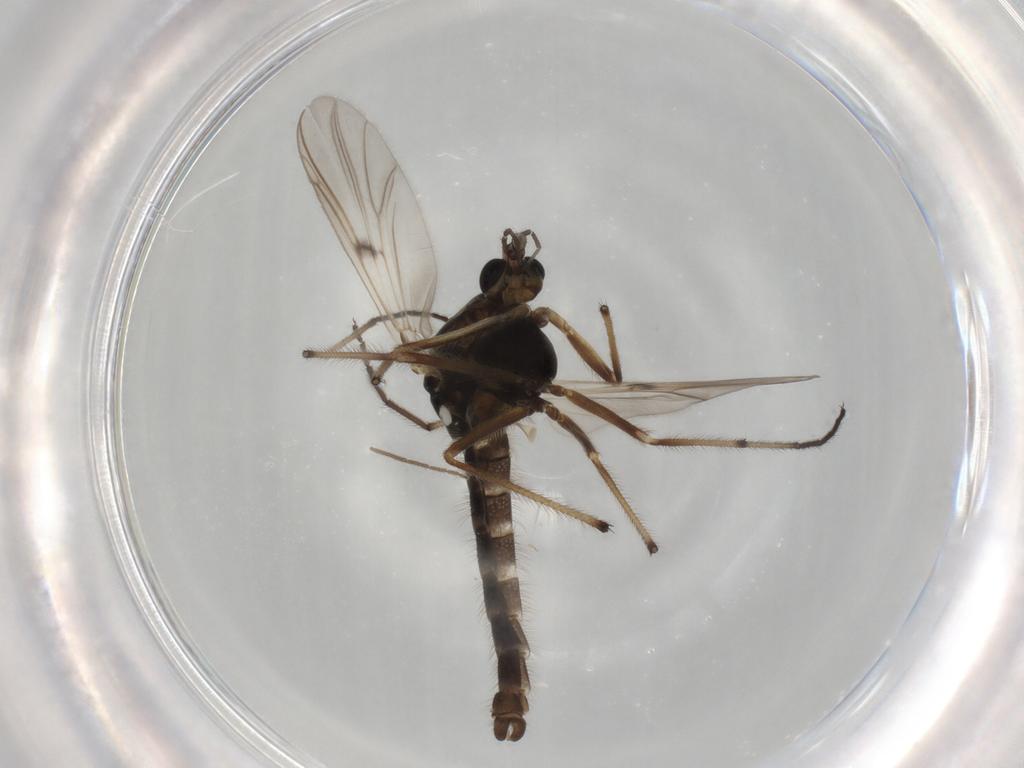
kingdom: Animalia
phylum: Arthropoda
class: Insecta
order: Diptera
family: Chironomidae
